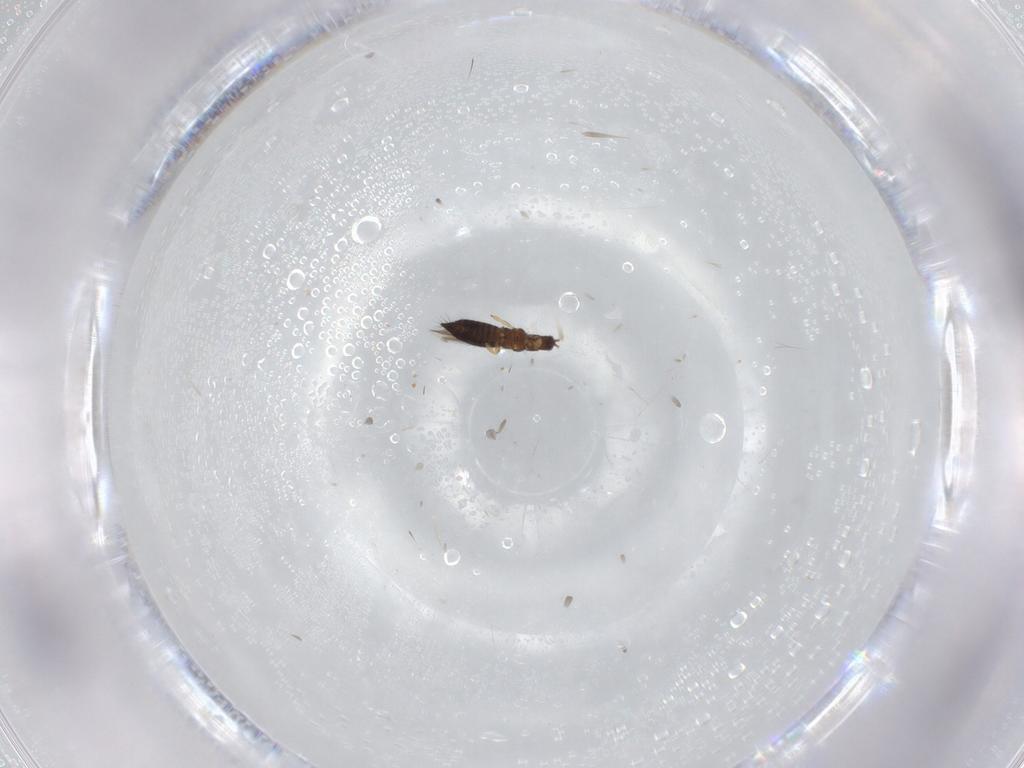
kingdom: Animalia
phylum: Arthropoda
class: Insecta
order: Thysanoptera
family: Thripidae
